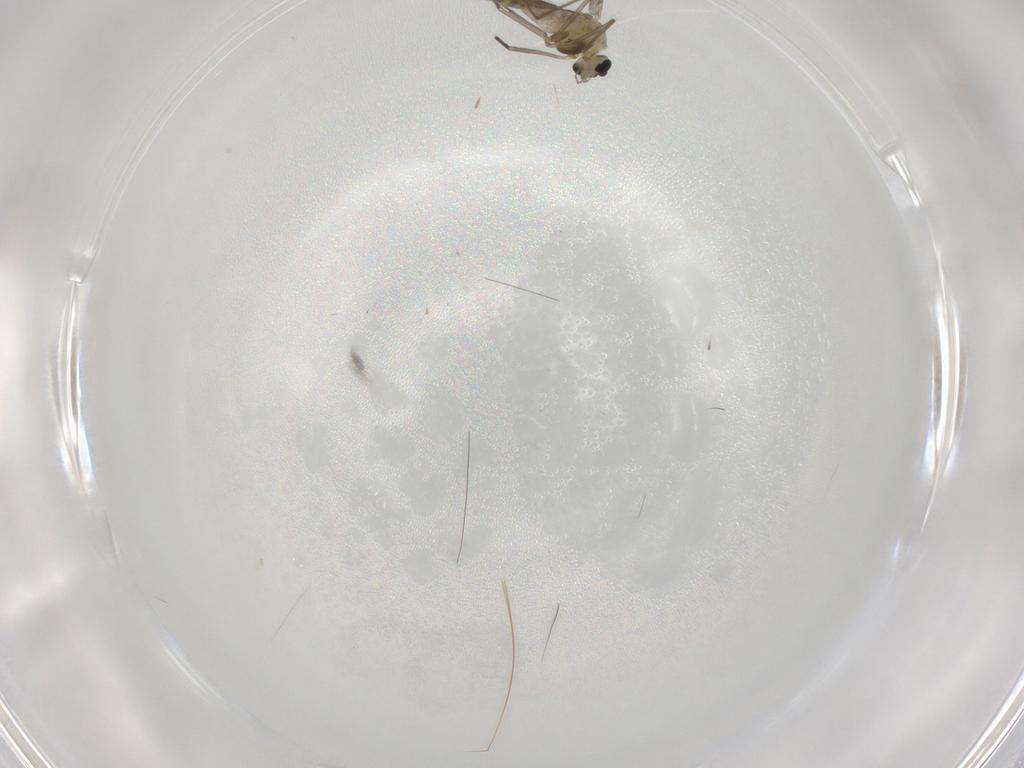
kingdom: Animalia
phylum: Arthropoda
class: Insecta
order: Diptera
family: Chironomidae
